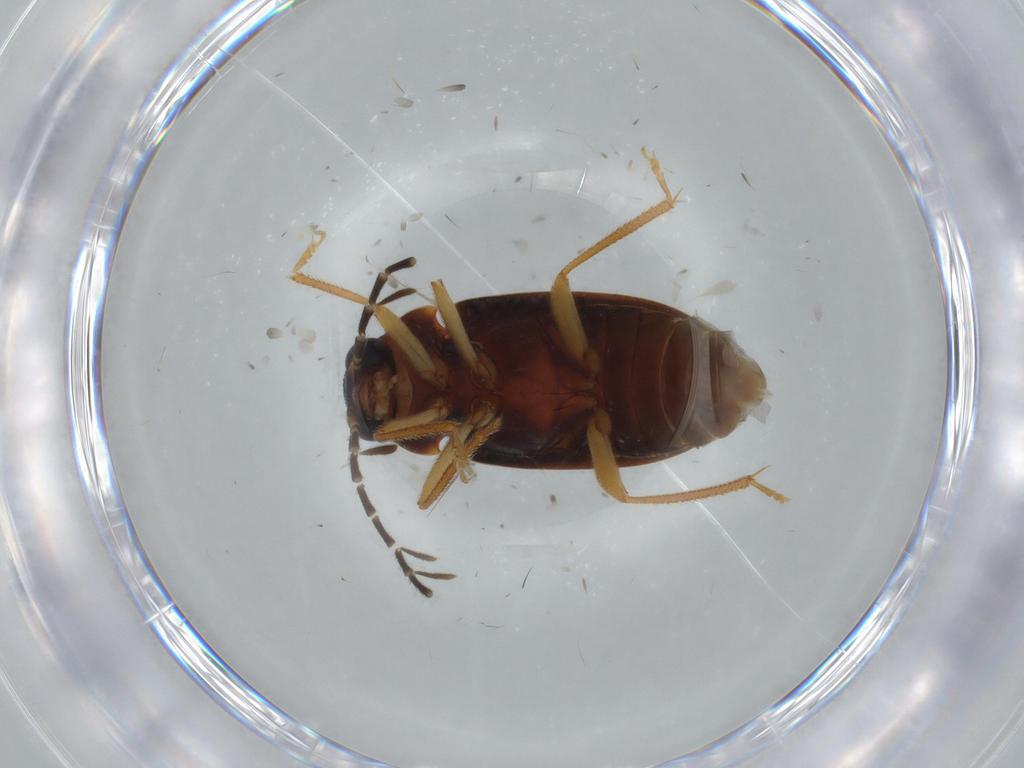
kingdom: Animalia
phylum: Arthropoda
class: Insecta
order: Coleoptera
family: Ptilodactylidae
